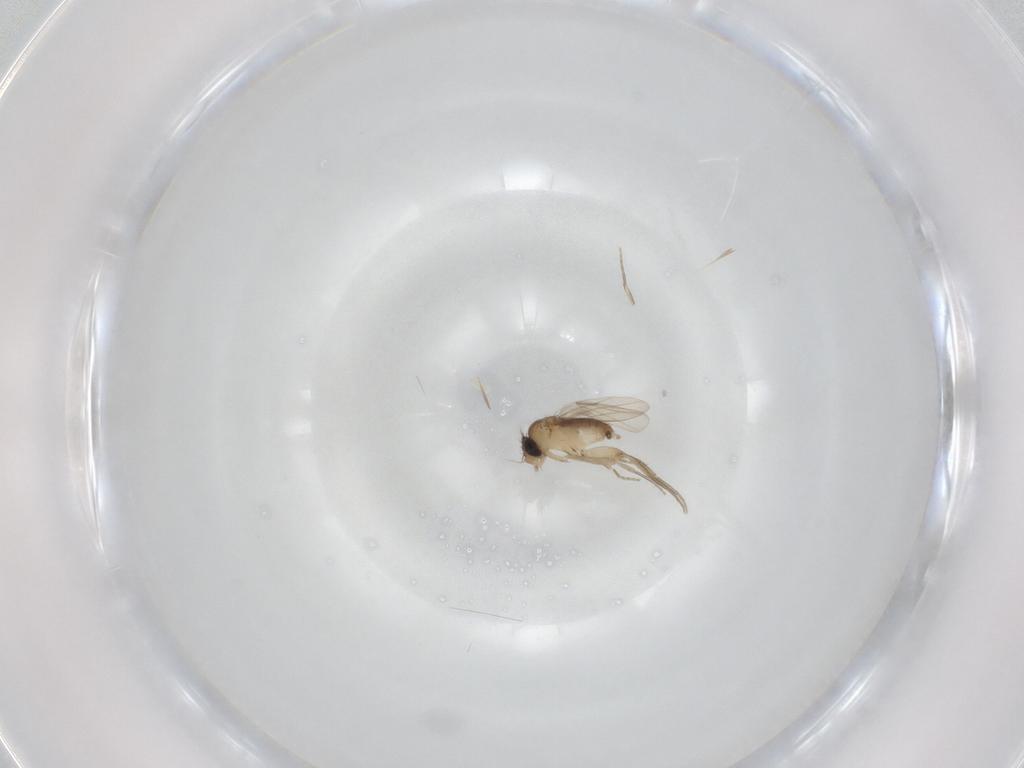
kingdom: Animalia
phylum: Arthropoda
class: Insecta
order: Diptera
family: Phoridae
